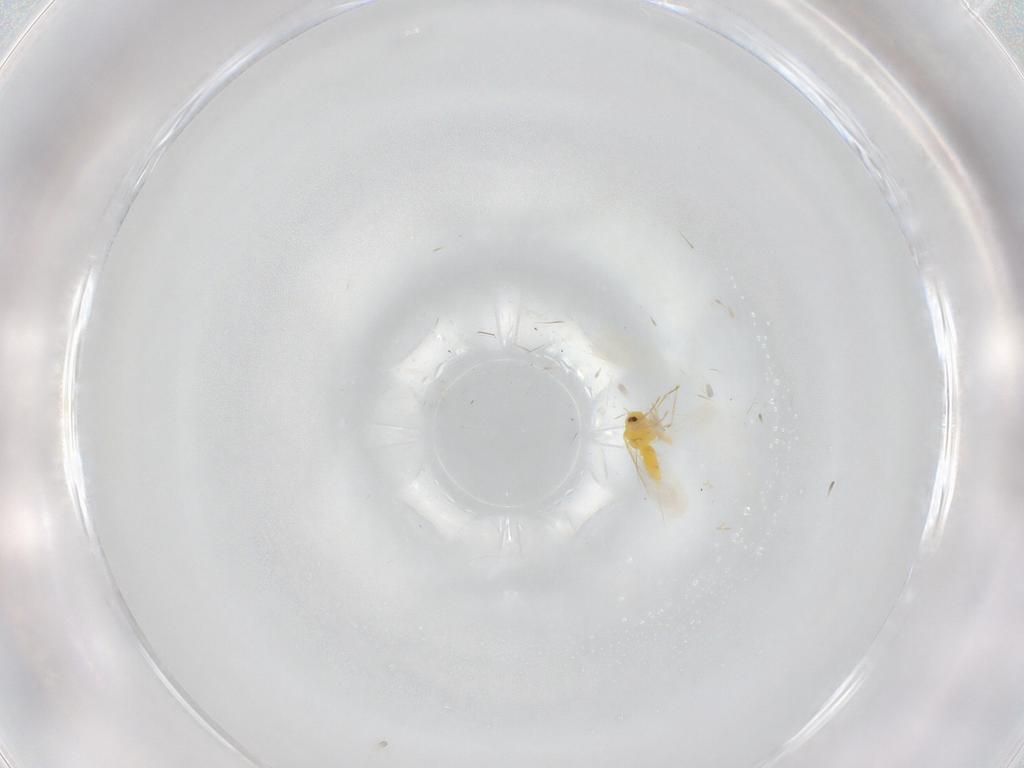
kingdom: Animalia
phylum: Arthropoda
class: Insecta
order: Hemiptera
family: Aleyrodidae
